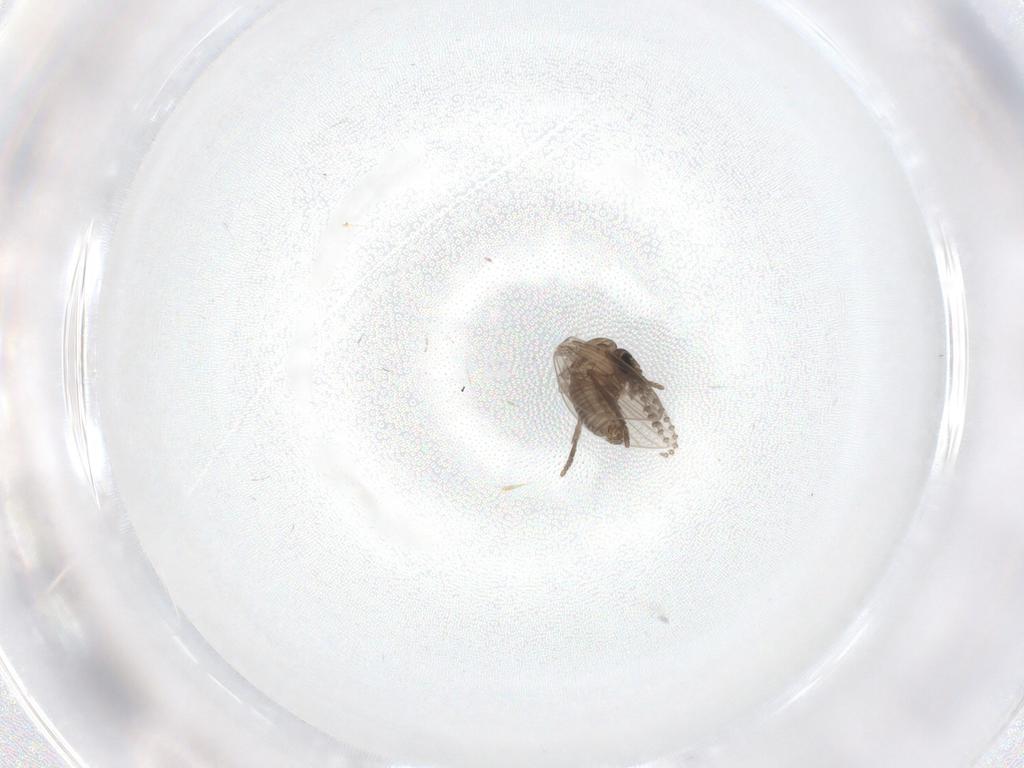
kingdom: Animalia
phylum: Arthropoda
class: Insecta
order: Diptera
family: Psychodidae
